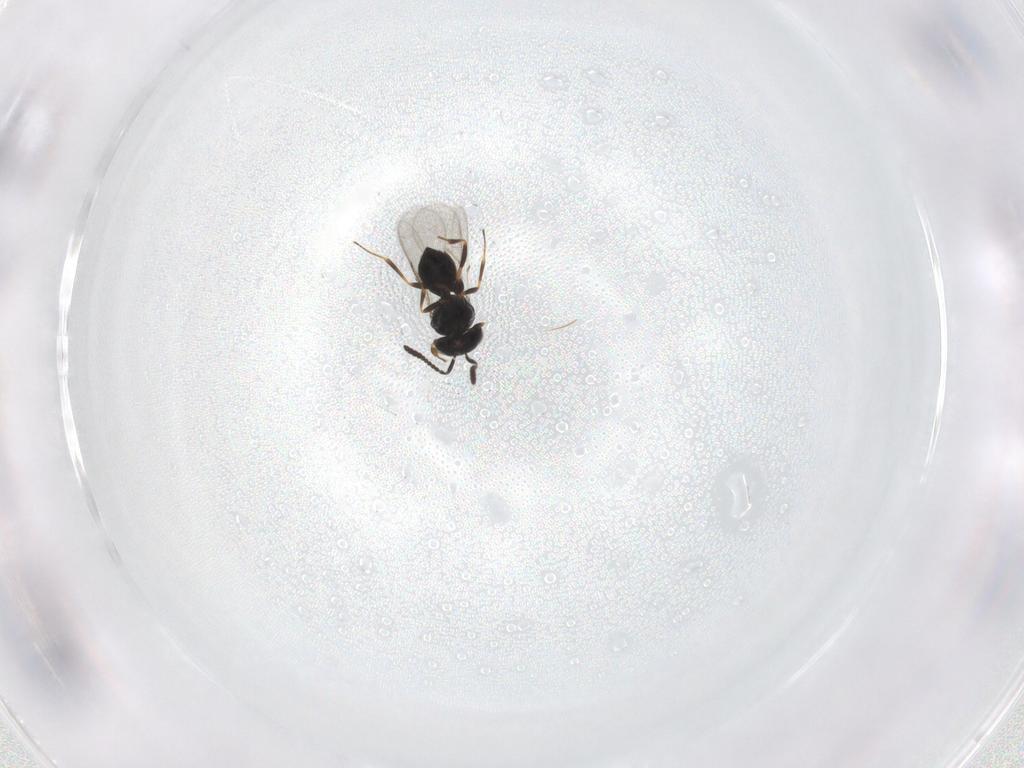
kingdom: Animalia
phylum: Arthropoda
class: Insecta
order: Hymenoptera
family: Scelionidae
